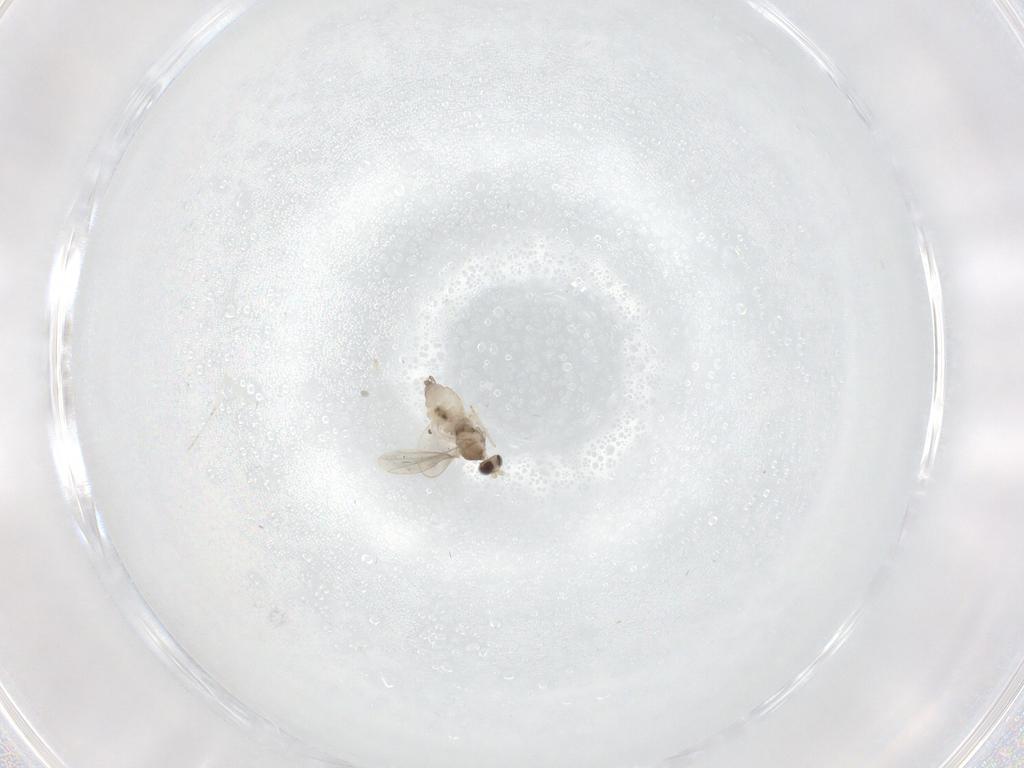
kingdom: Animalia
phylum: Arthropoda
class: Insecta
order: Diptera
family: Cecidomyiidae
